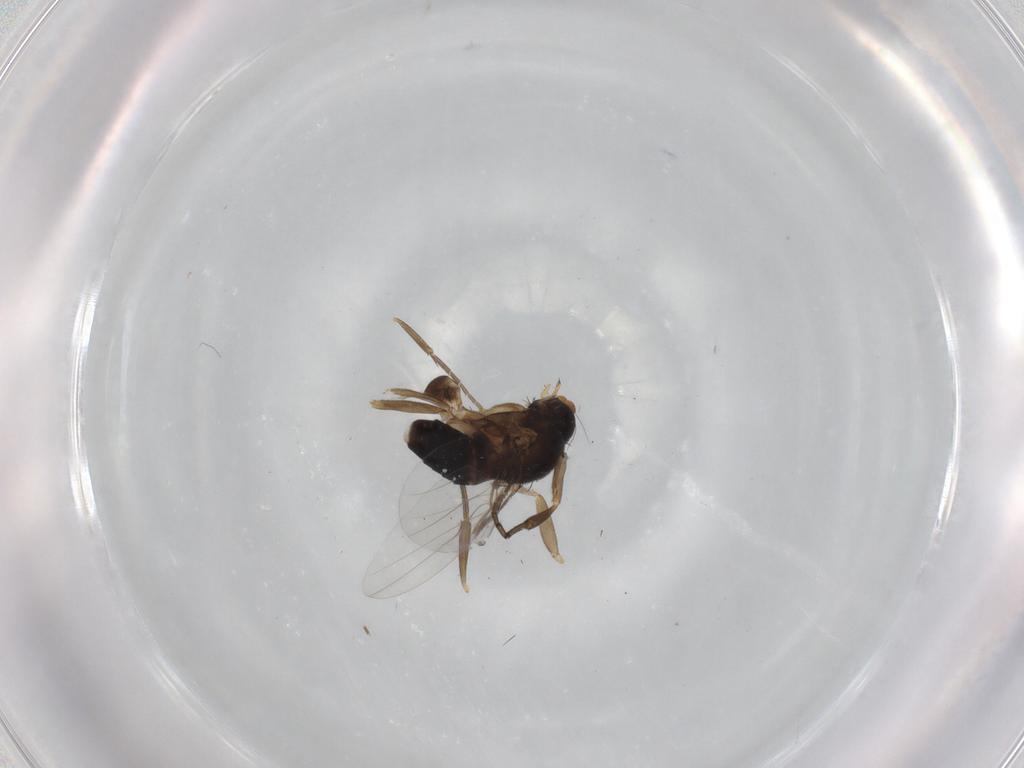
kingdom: Animalia
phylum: Arthropoda
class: Insecta
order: Diptera
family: Phoridae
